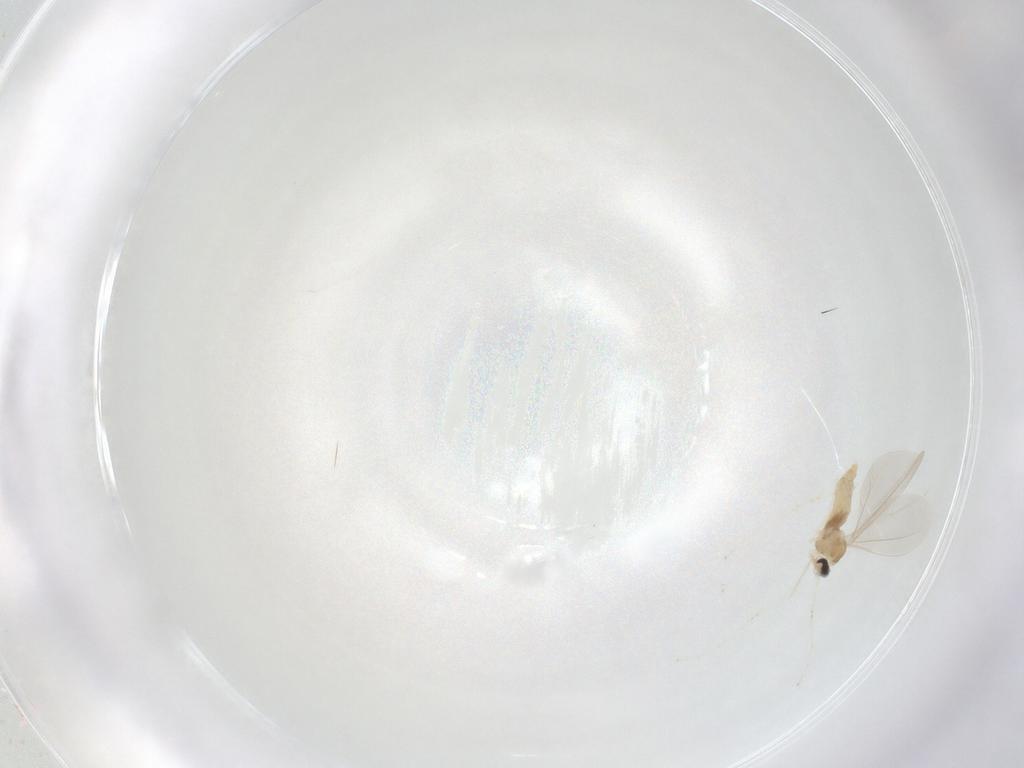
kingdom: Animalia
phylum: Arthropoda
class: Insecta
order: Diptera
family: Cecidomyiidae
